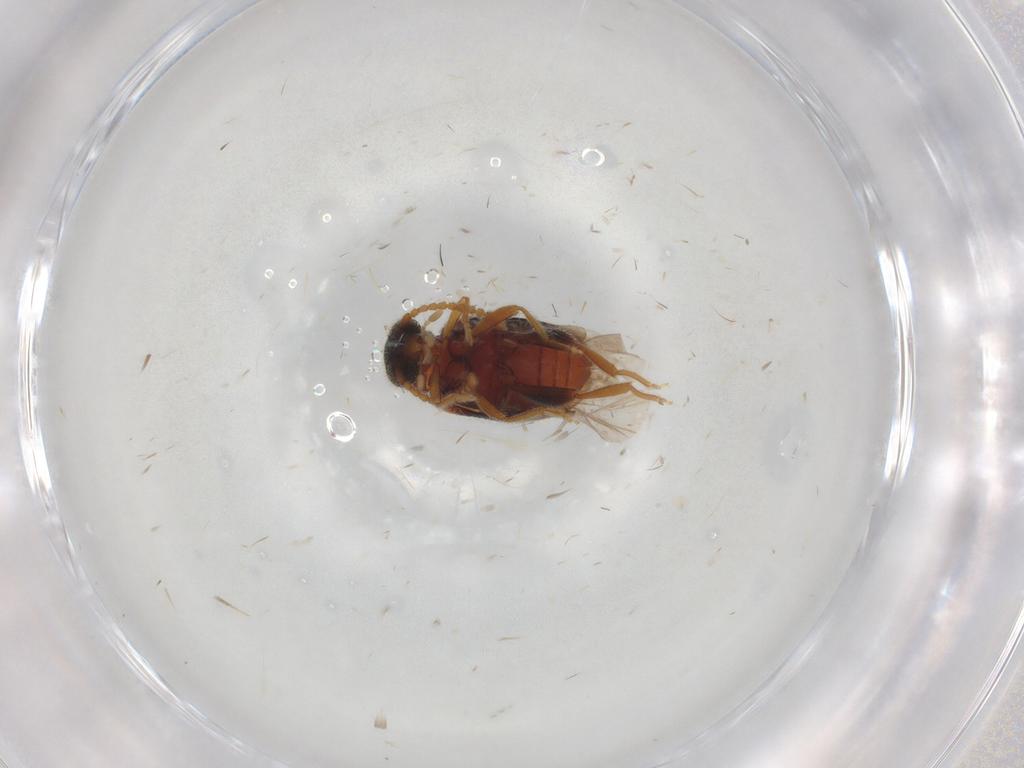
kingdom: Animalia
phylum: Arthropoda
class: Insecta
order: Coleoptera
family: Aderidae
